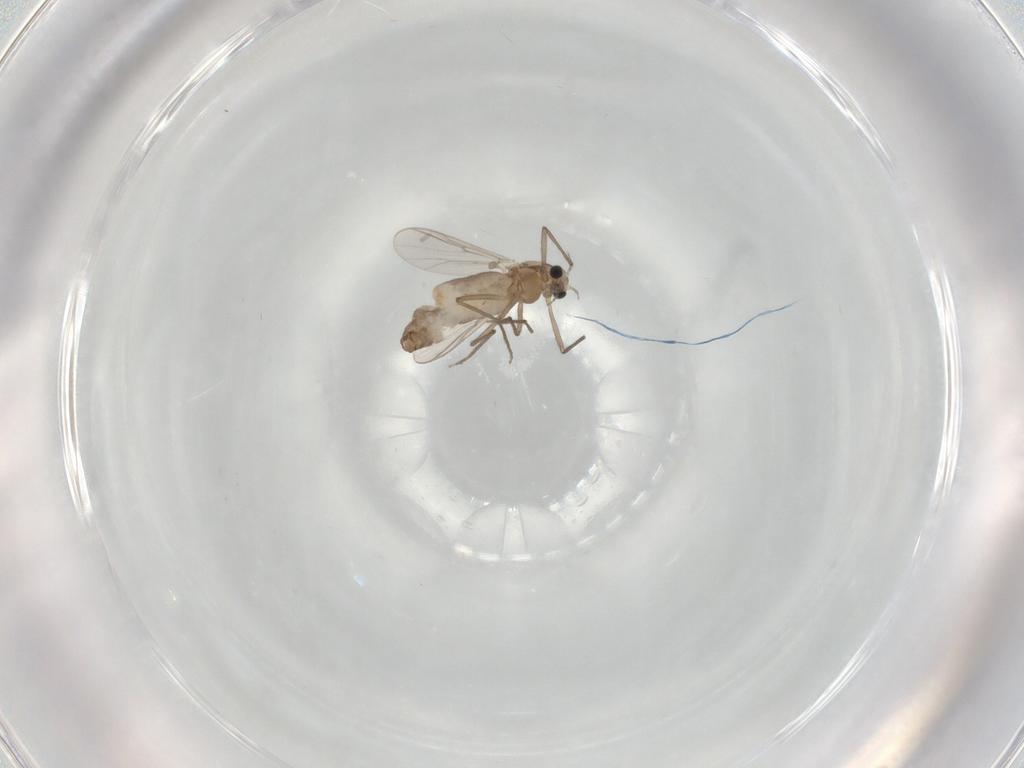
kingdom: Animalia
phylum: Arthropoda
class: Insecta
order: Diptera
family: Chironomidae
